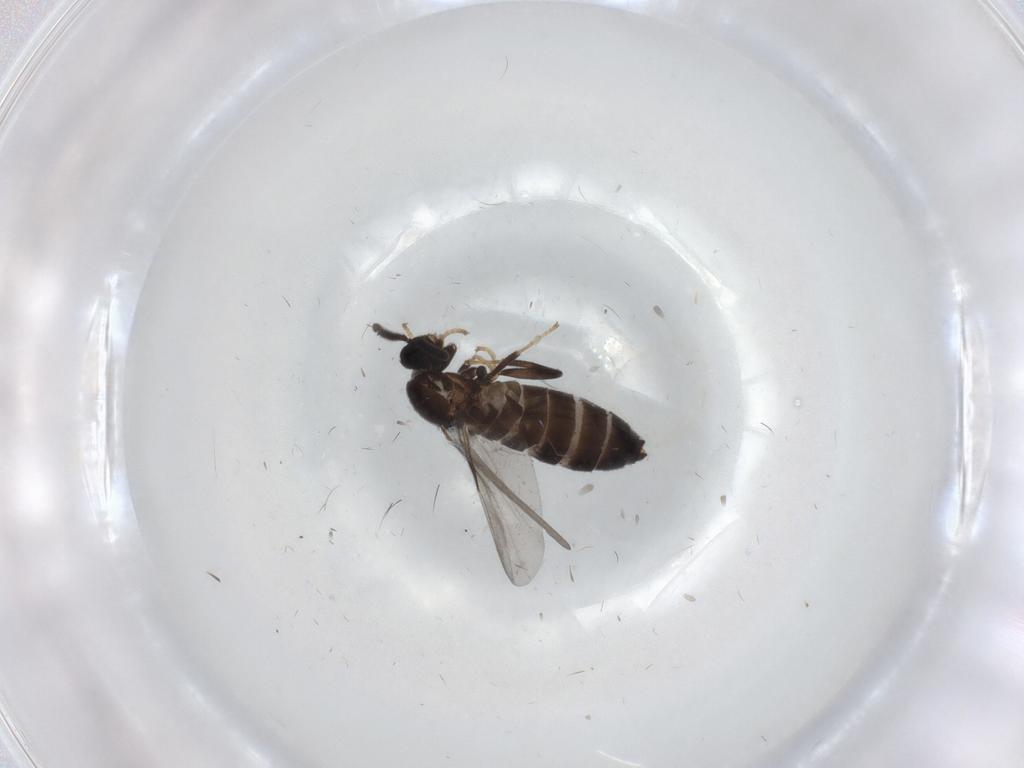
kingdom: Animalia
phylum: Arthropoda
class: Insecta
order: Diptera
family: Scatopsidae
